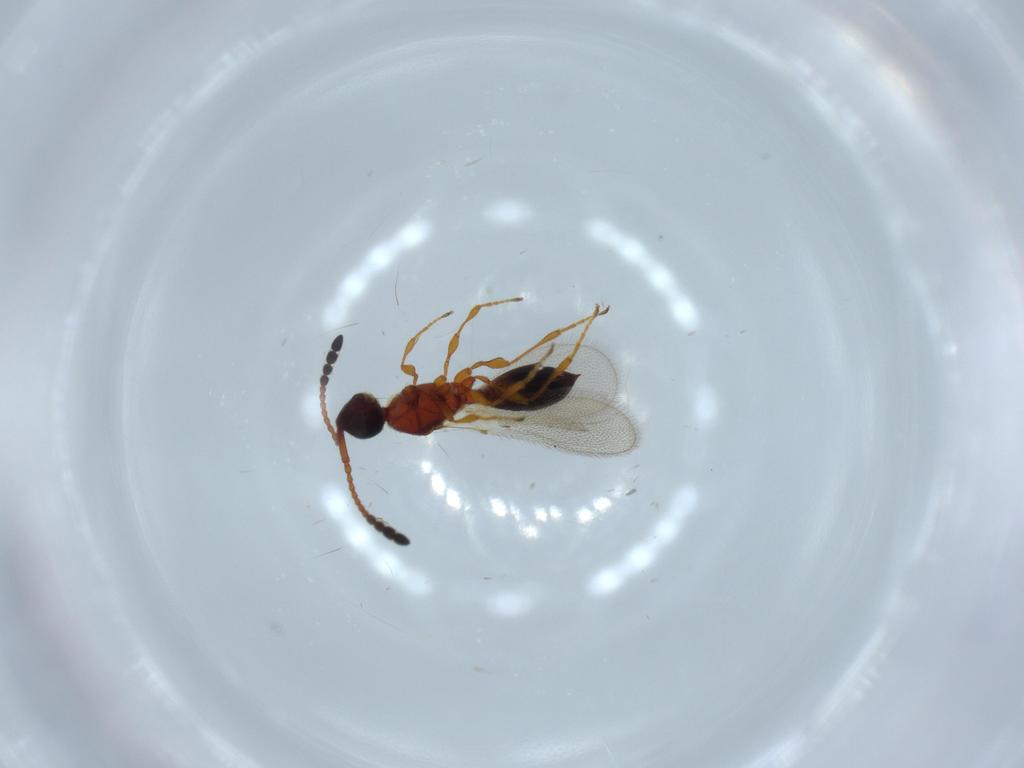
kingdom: Animalia
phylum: Arthropoda
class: Insecta
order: Hymenoptera
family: Diapriidae
